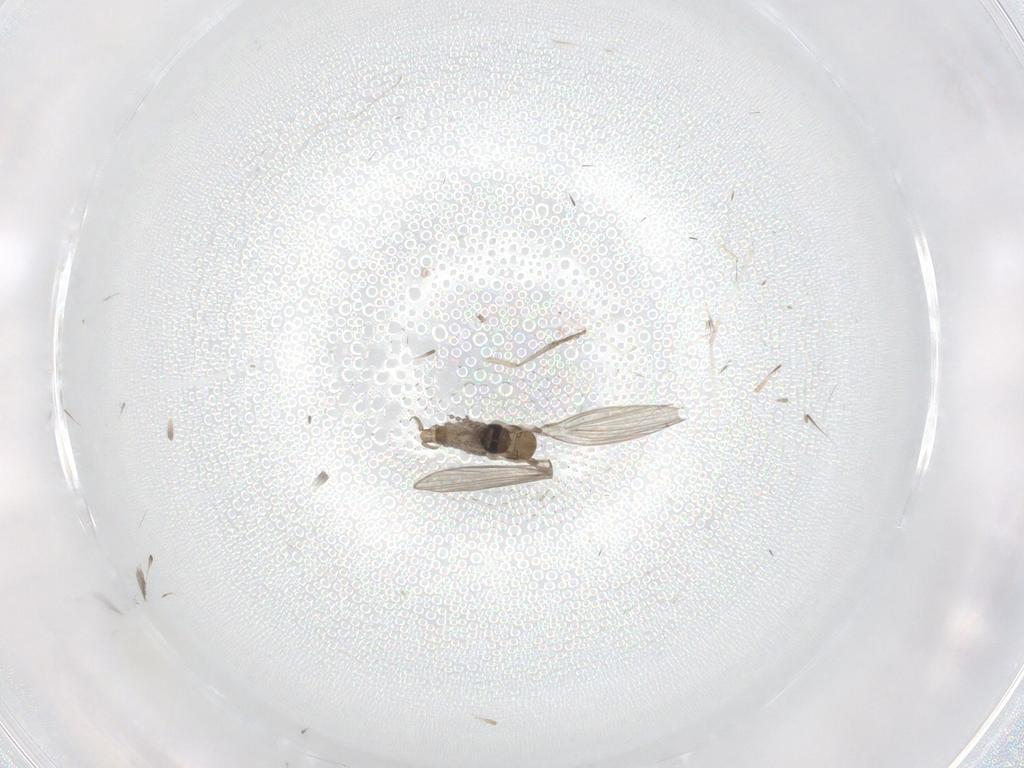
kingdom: Animalia
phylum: Arthropoda
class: Insecta
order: Diptera
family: Psychodidae
